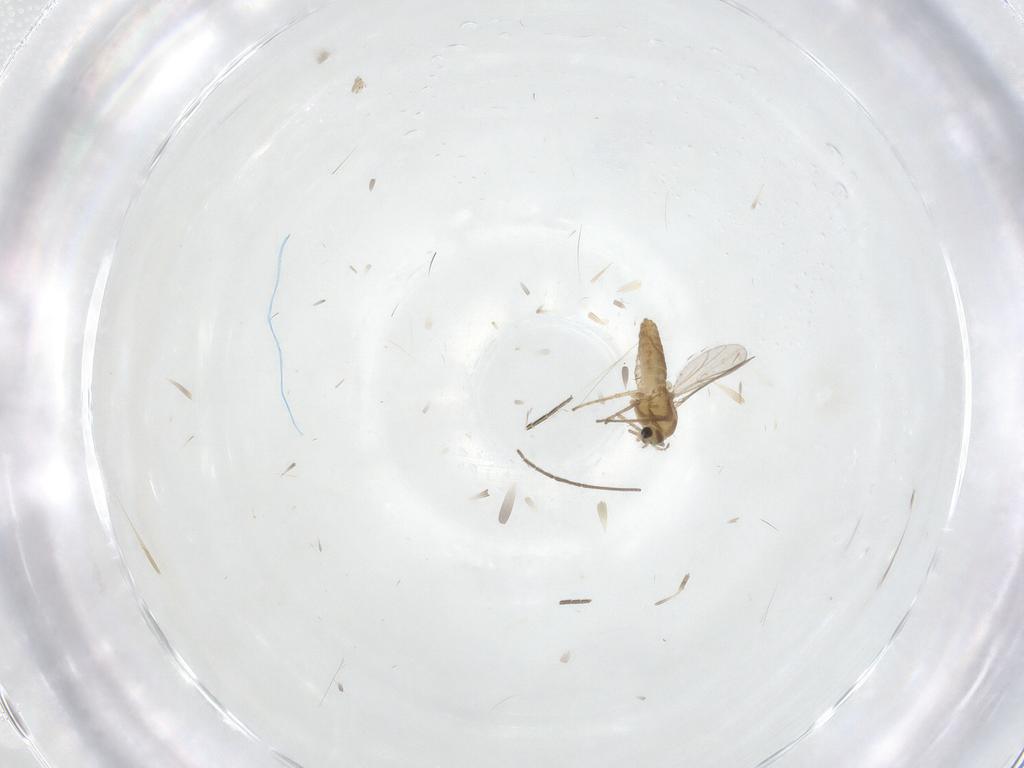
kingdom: Animalia
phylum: Arthropoda
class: Insecta
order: Diptera
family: Chironomidae
